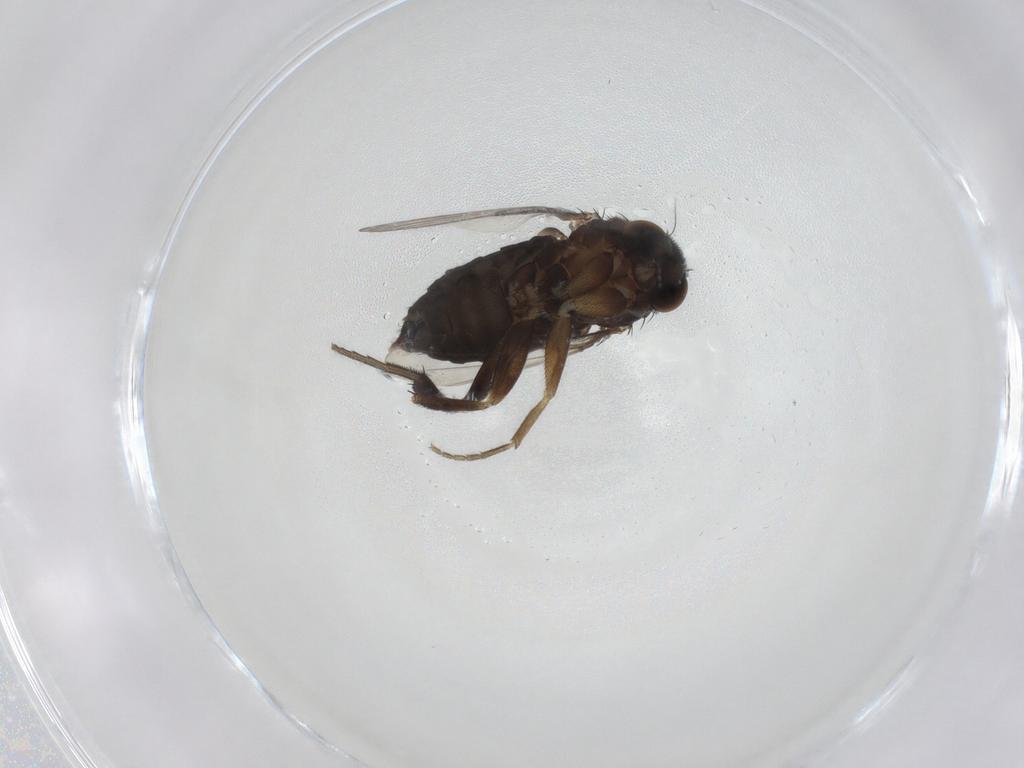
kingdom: Animalia
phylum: Arthropoda
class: Insecta
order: Diptera
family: Phoridae
